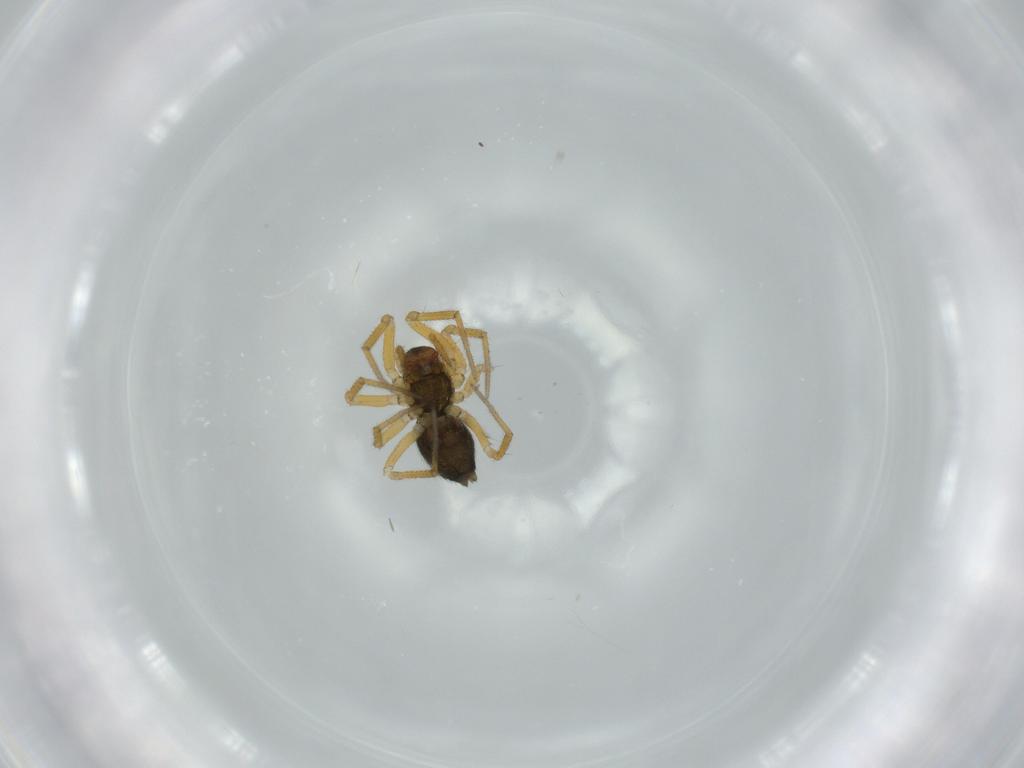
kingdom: Animalia
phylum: Arthropoda
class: Arachnida
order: Araneae
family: Linyphiidae
